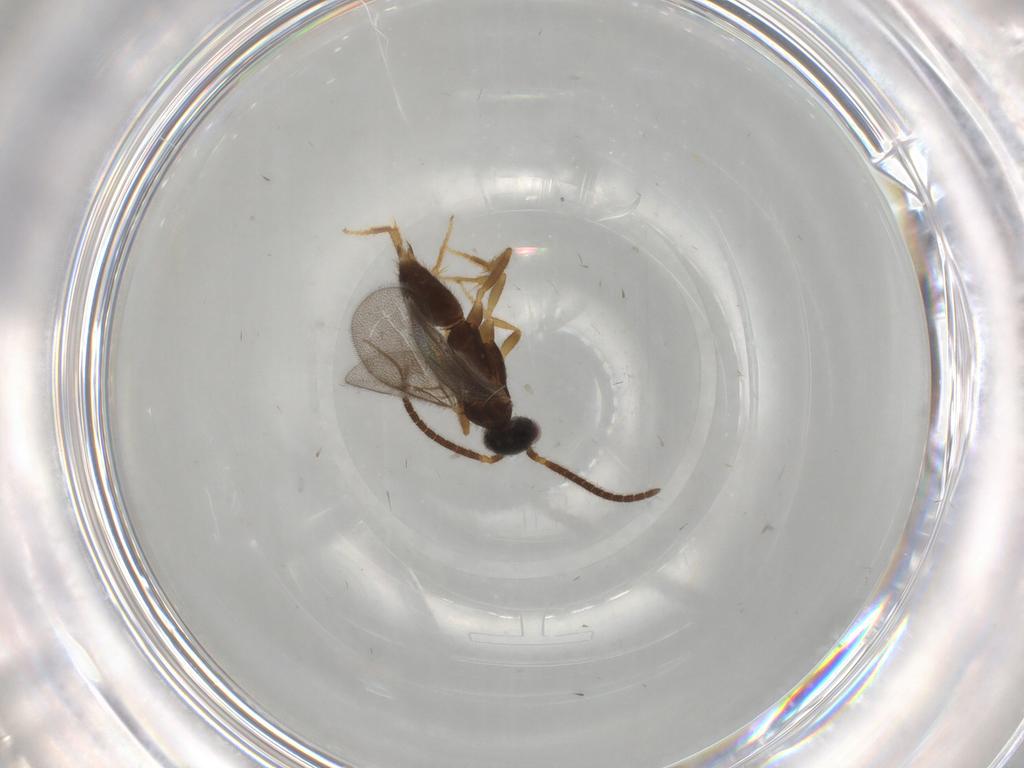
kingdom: Animalia
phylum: Arthropoda
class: Insecta
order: Hymenoptera
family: Bethylidae
